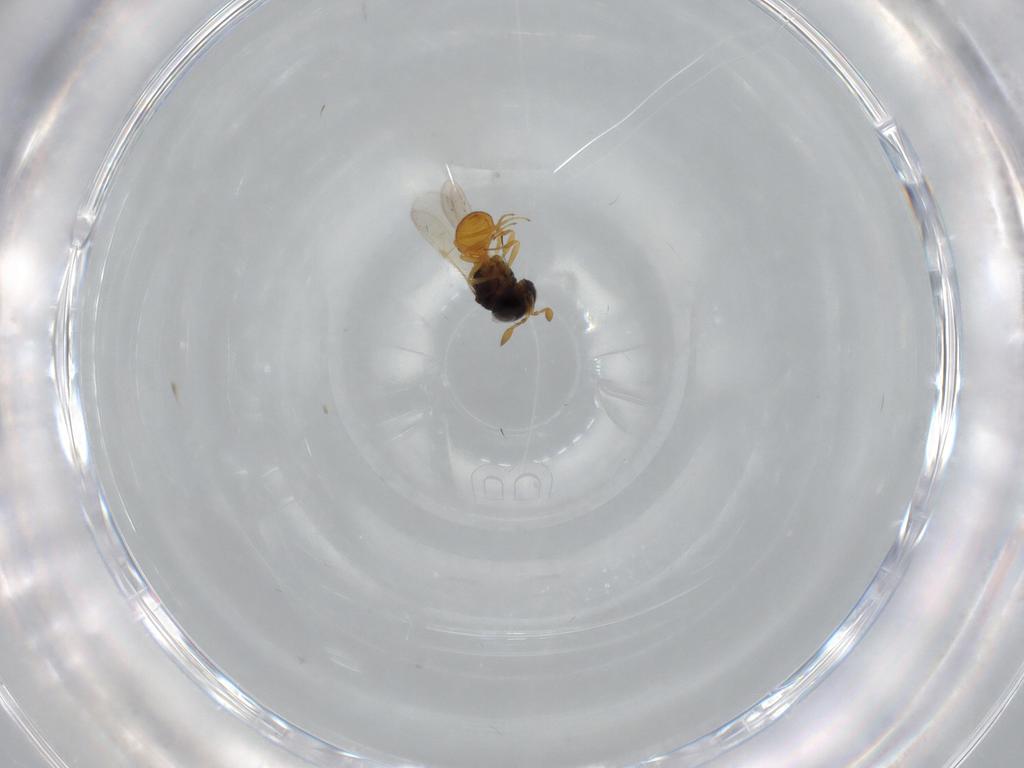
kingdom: Animalia
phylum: Arthropoda
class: Insecta
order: Hymenoptera
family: Scelionidae
